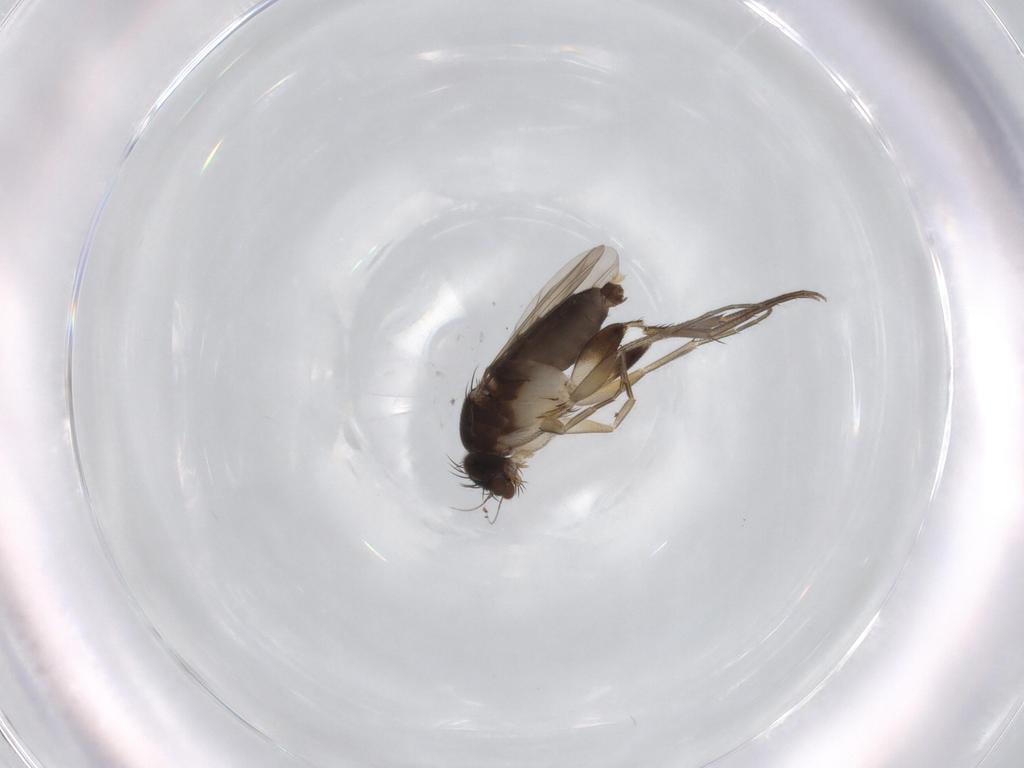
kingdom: Animalia
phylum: Arthropoda
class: Insecta
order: Diptera
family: Phoridae
